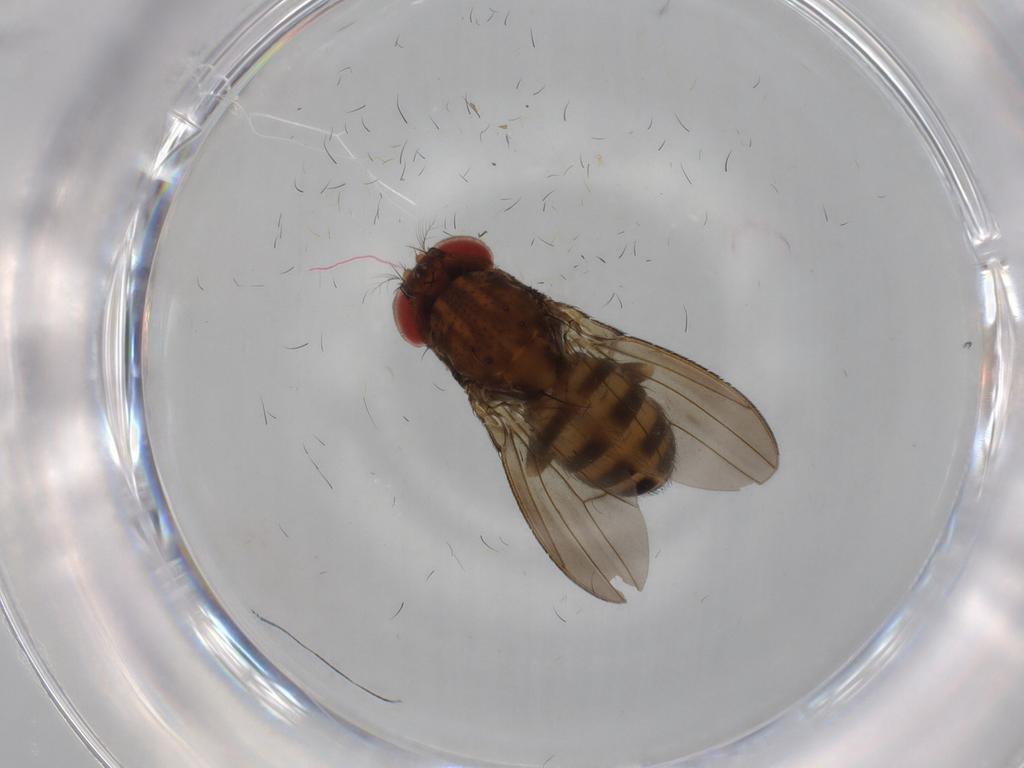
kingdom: Animalia
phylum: Arthropoda
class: Insecta
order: Diptera
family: Drosophilidae
